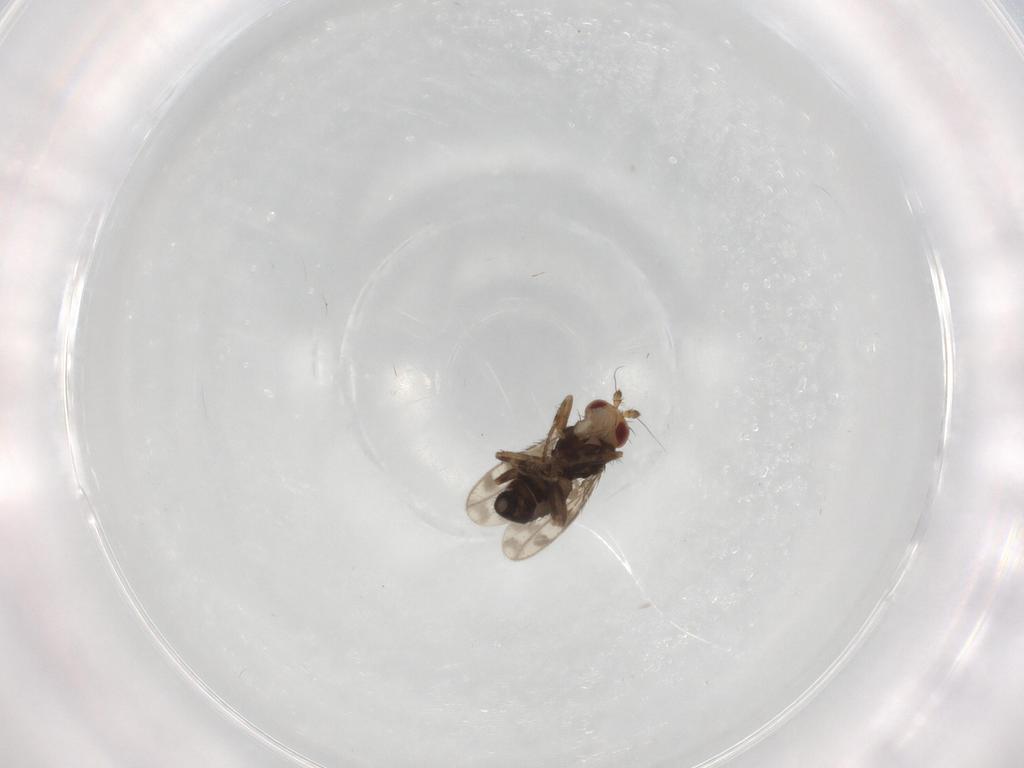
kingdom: Animalia
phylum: Arthropoda
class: Insecta
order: Diptera
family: Sphaeroceridae
